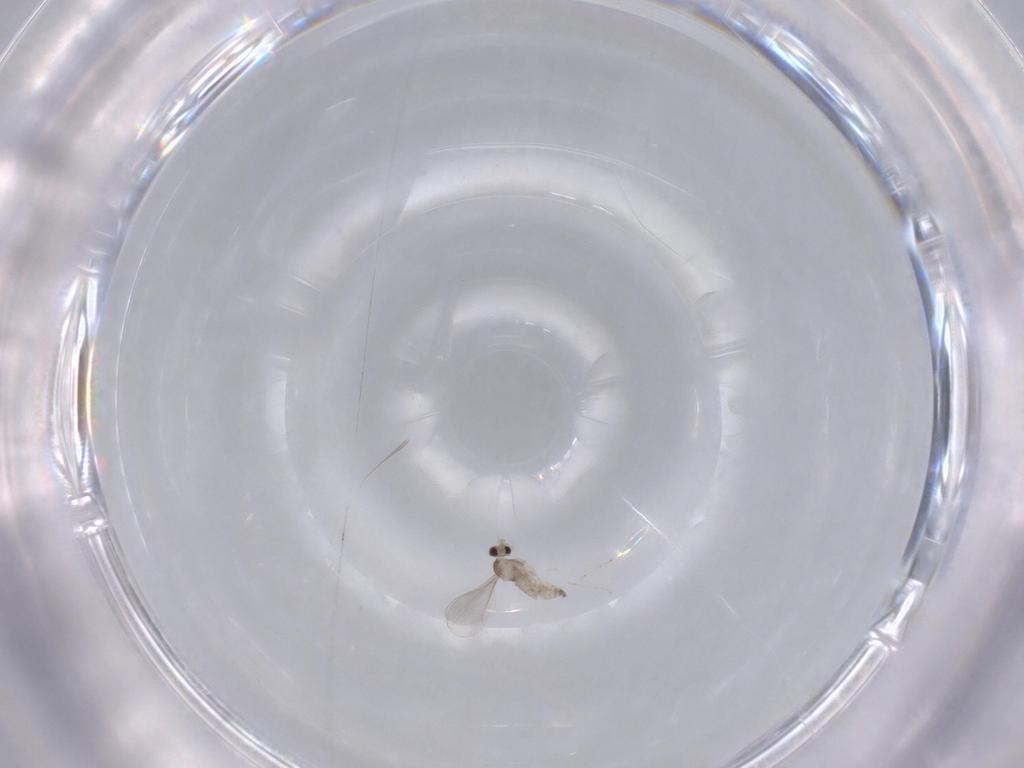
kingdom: Animalia
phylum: Arthropoda
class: Insecta
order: Diptera
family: Cecidomyiidae
